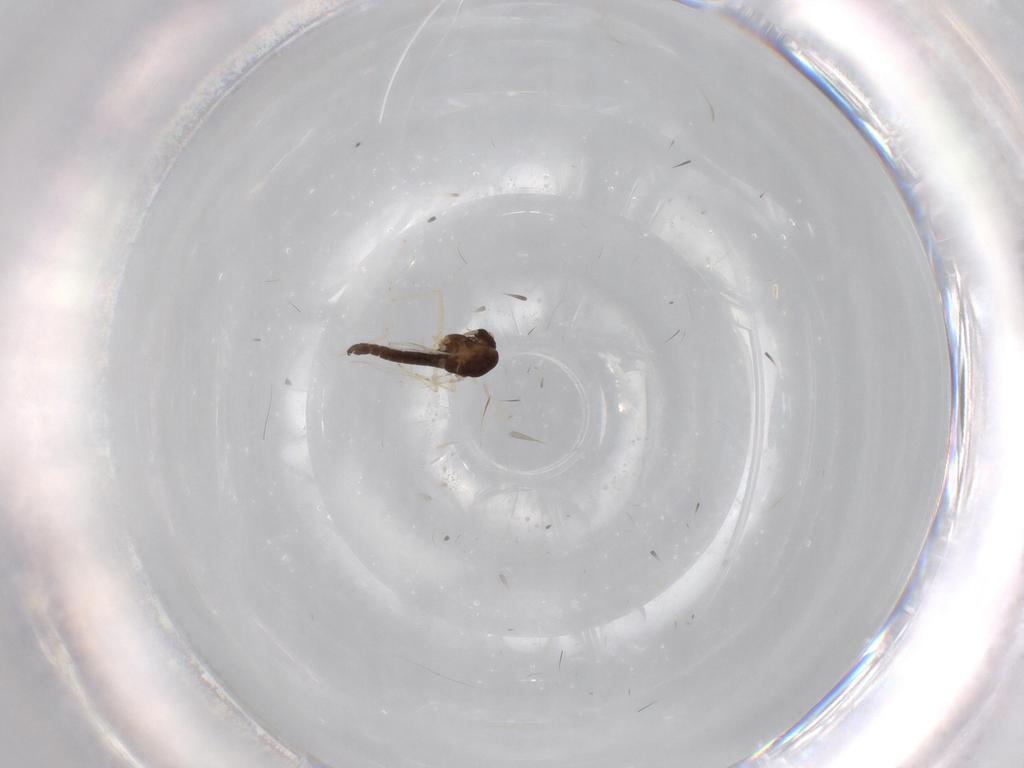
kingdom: Animalia
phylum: Arthropoda
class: Insecta
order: Diptera
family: Chironomidae
